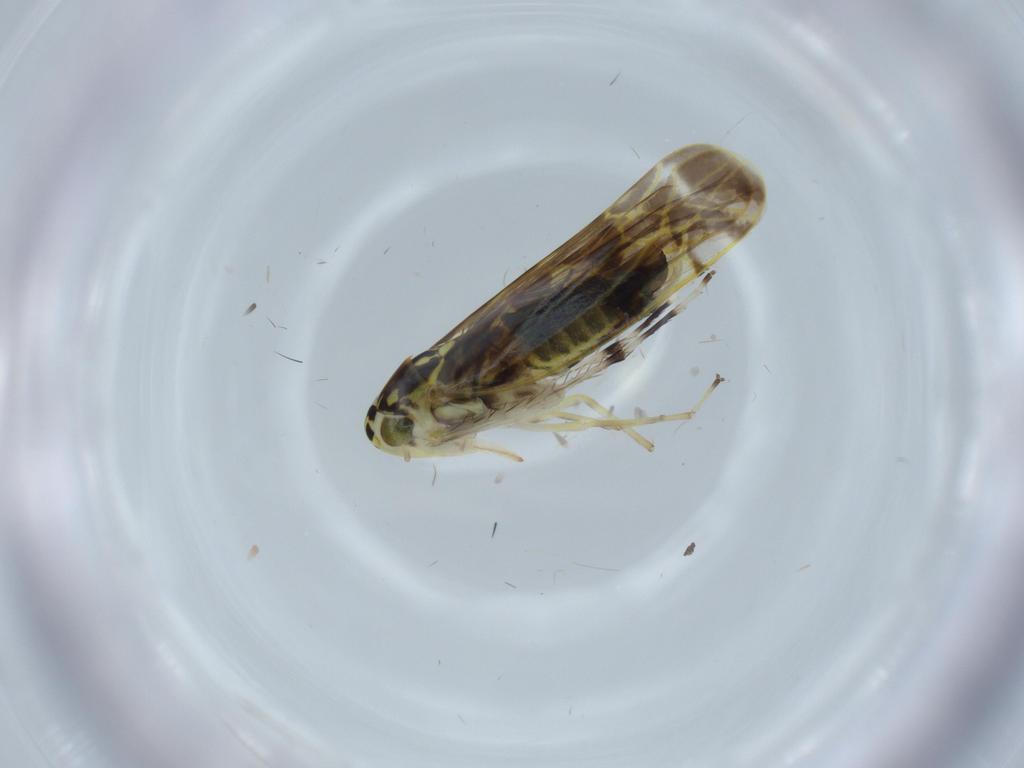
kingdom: Animalia
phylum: Arthropoda
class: Insecta
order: Hemiptera
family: Cicadellidae
